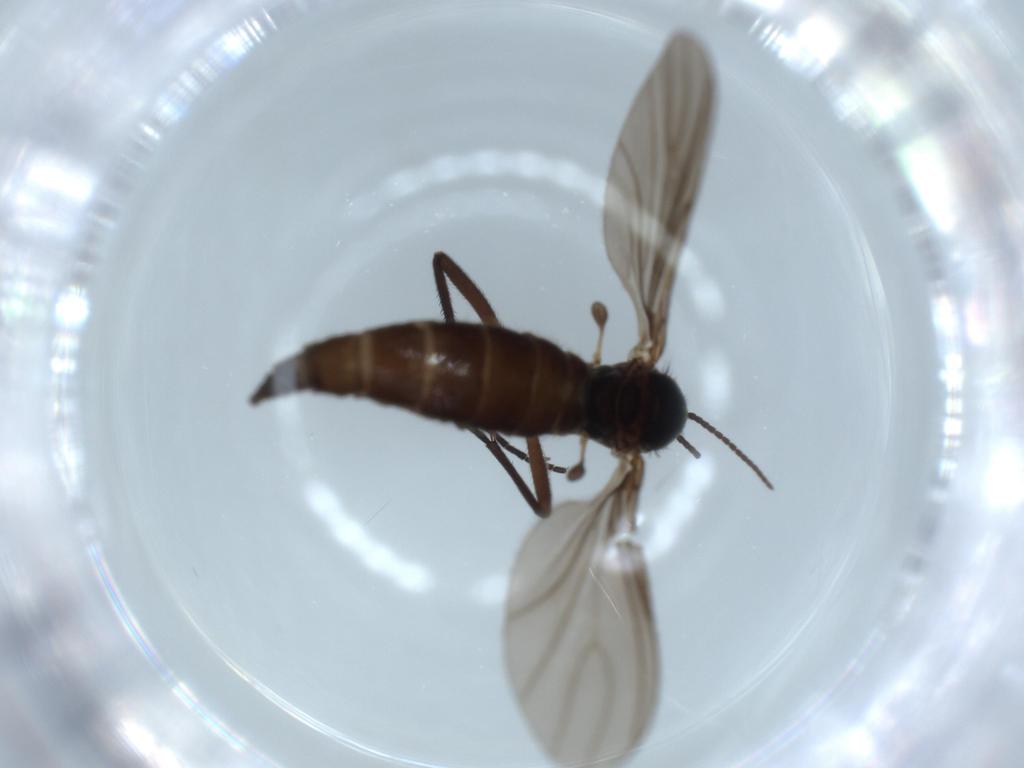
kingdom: Animalia
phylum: Arthropoda
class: Insecta
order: Diptera
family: Sciaridae
